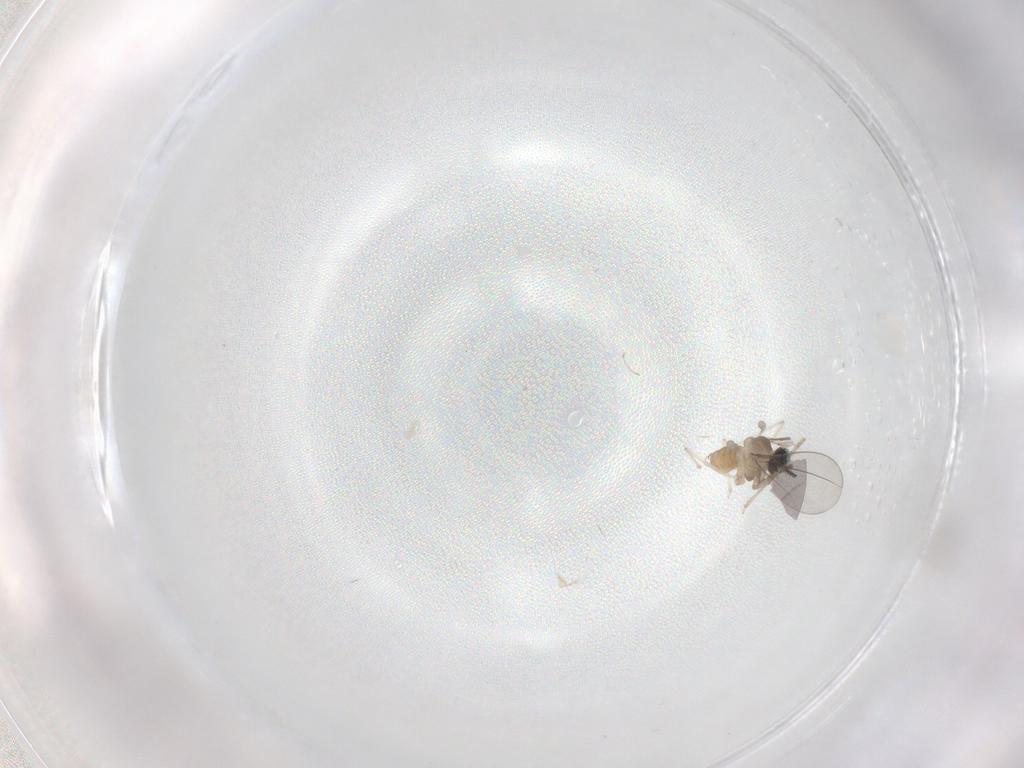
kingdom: Animalia
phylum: Arthropoda
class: Insecta
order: Diptera
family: Cecidomyiidae
